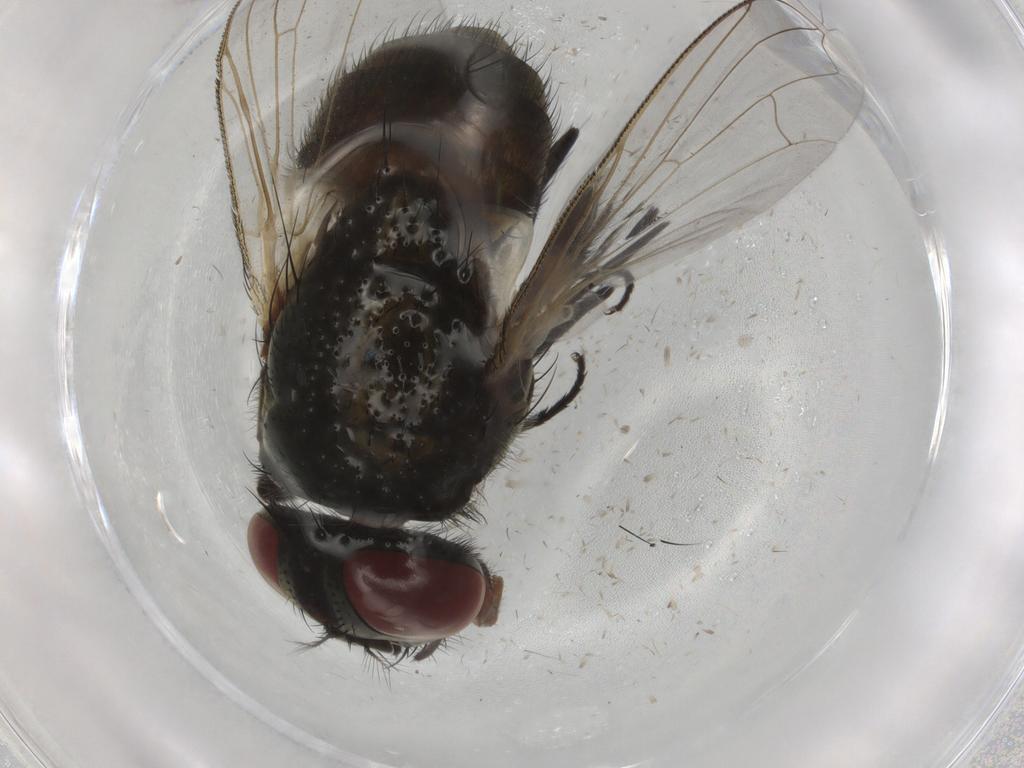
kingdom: Animalia
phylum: Arthropoda
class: Insecta
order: Diptera
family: Muscidae
